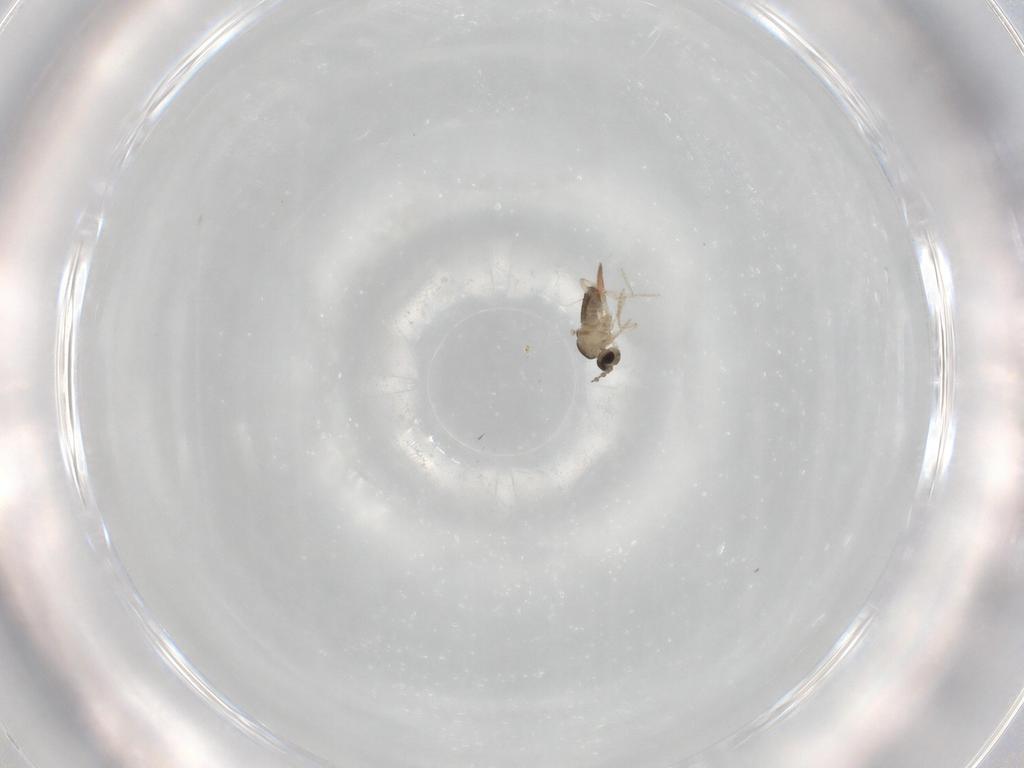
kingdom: Animalia
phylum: Arthropoda
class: Insecta
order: Diptera
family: Cecidomyiidae
